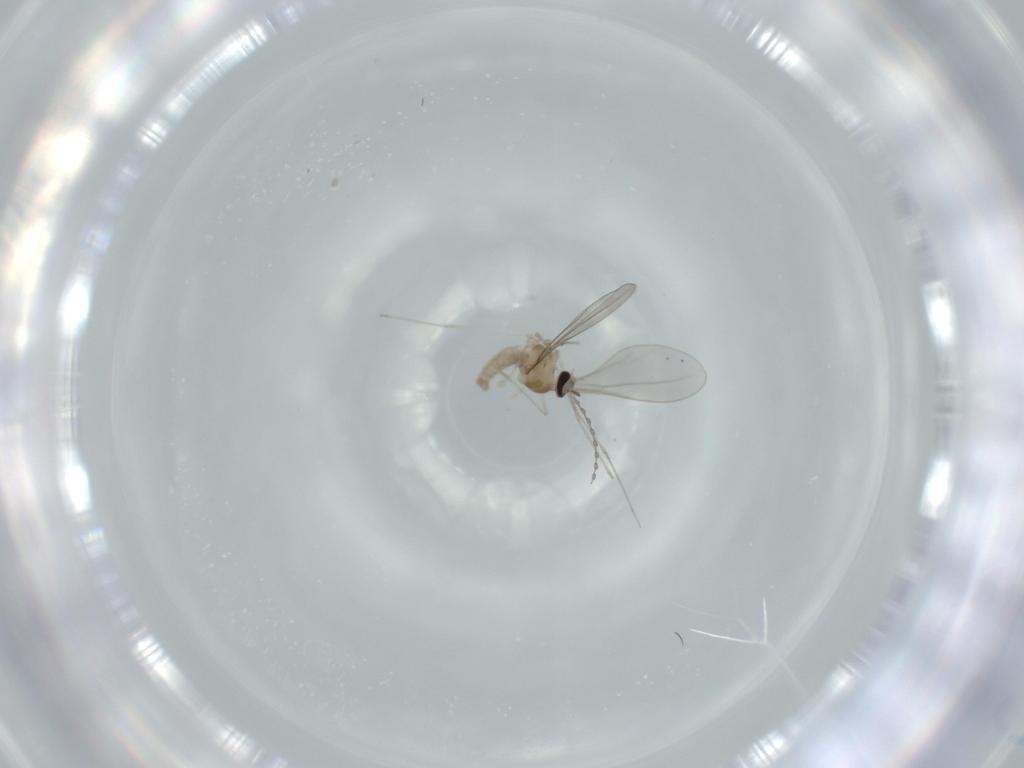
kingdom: Animalia
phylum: Arthropoda
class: Insecta
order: Diptera
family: Cecidomyiidae
